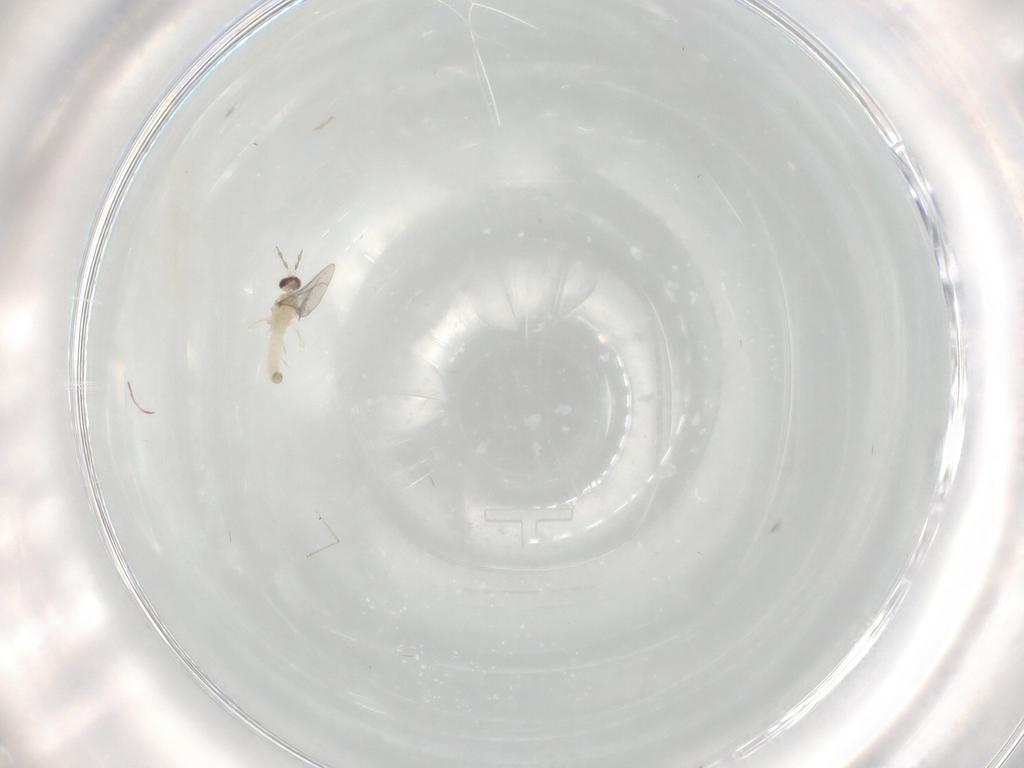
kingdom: Animalia
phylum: Arthropoda
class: Insecta
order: Diptera
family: Cecidomyiidae
